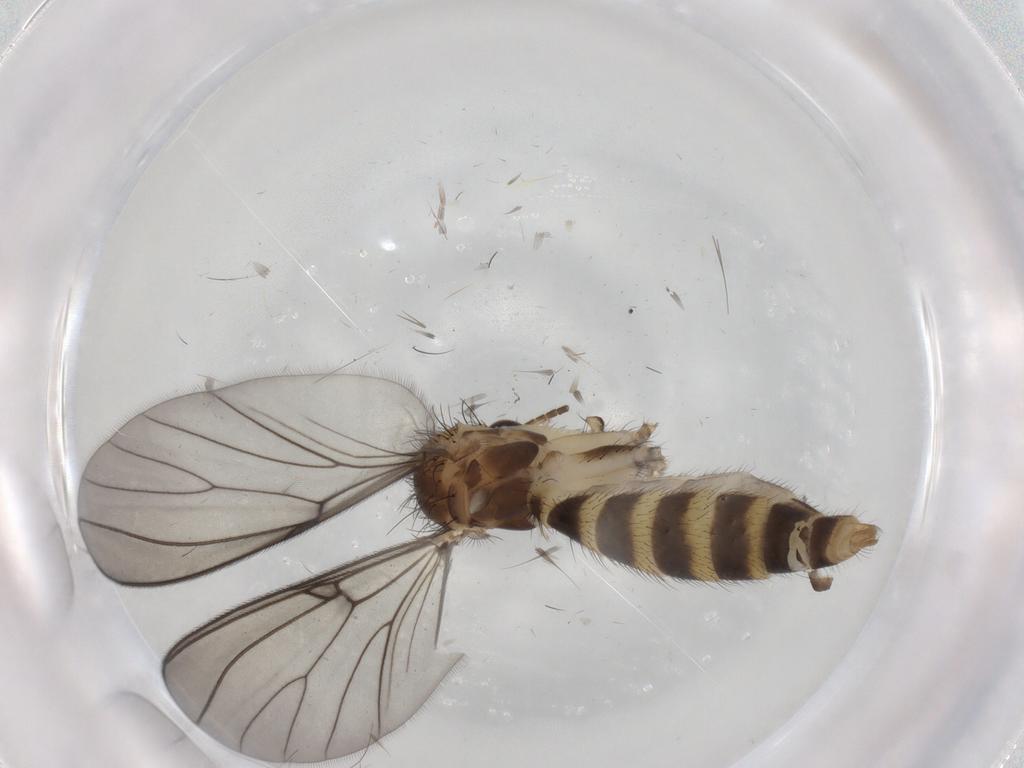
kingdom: Animalia
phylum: Arthropoda
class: Insecta
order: Diptera
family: Mycetophilidae
